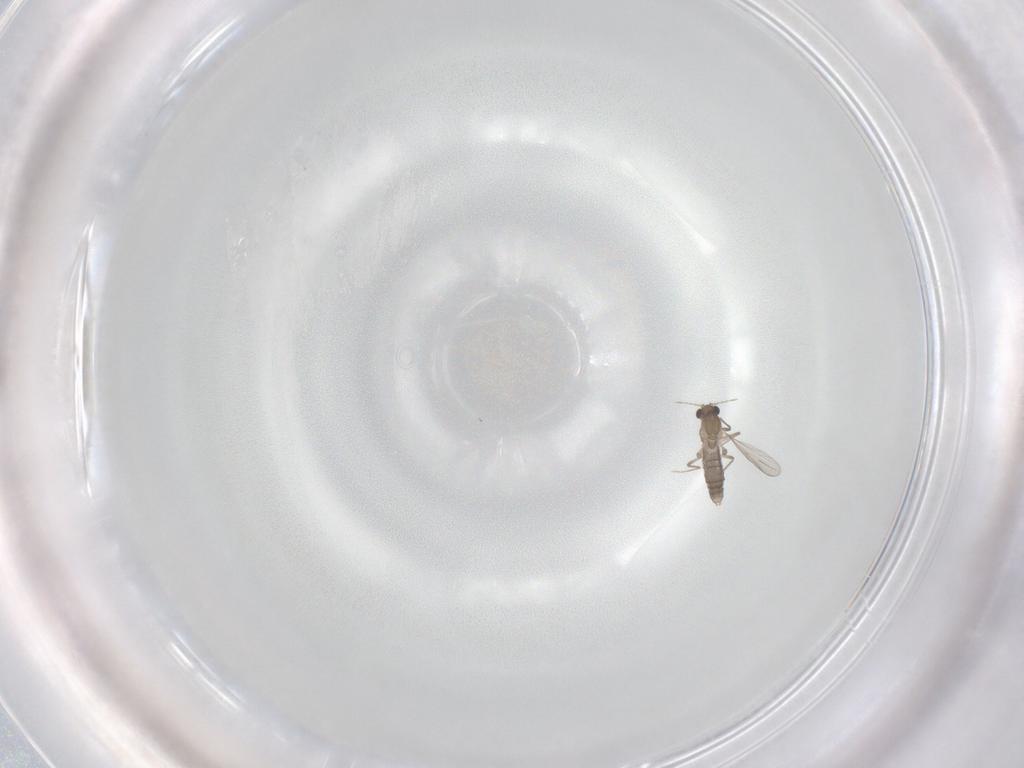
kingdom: Animalia
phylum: Arthropoda
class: Insecta
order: Diptera
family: Chironomidae
